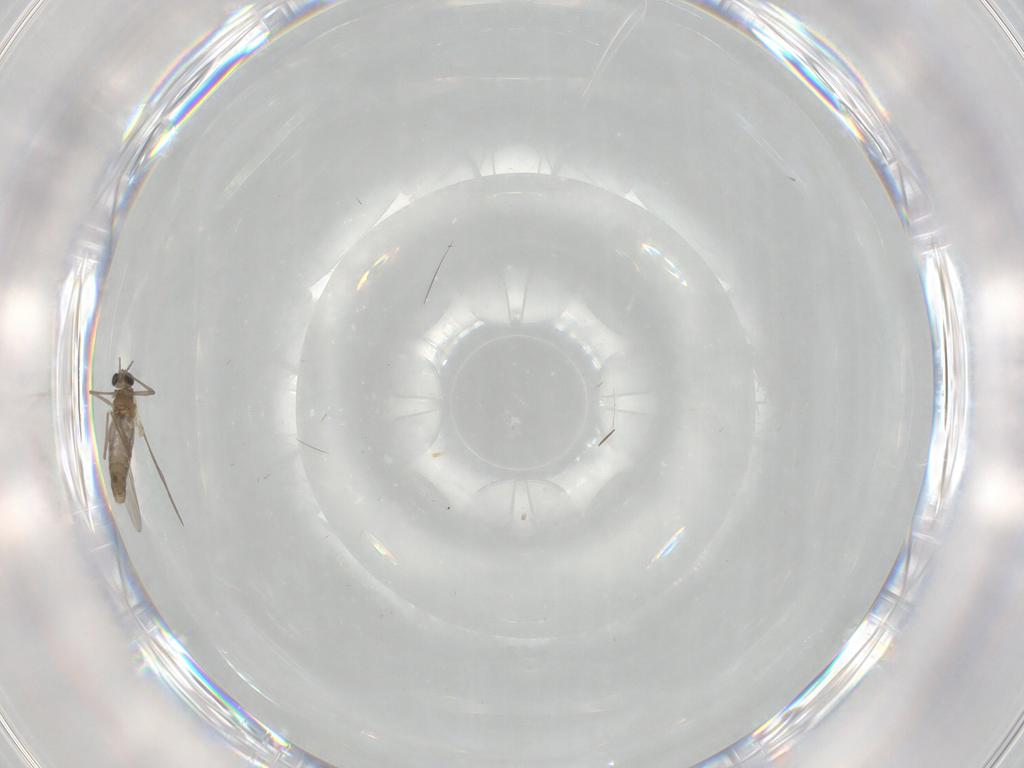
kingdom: Animalia
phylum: Arthropoda
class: Insecta
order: Diptera
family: Chironomidae
